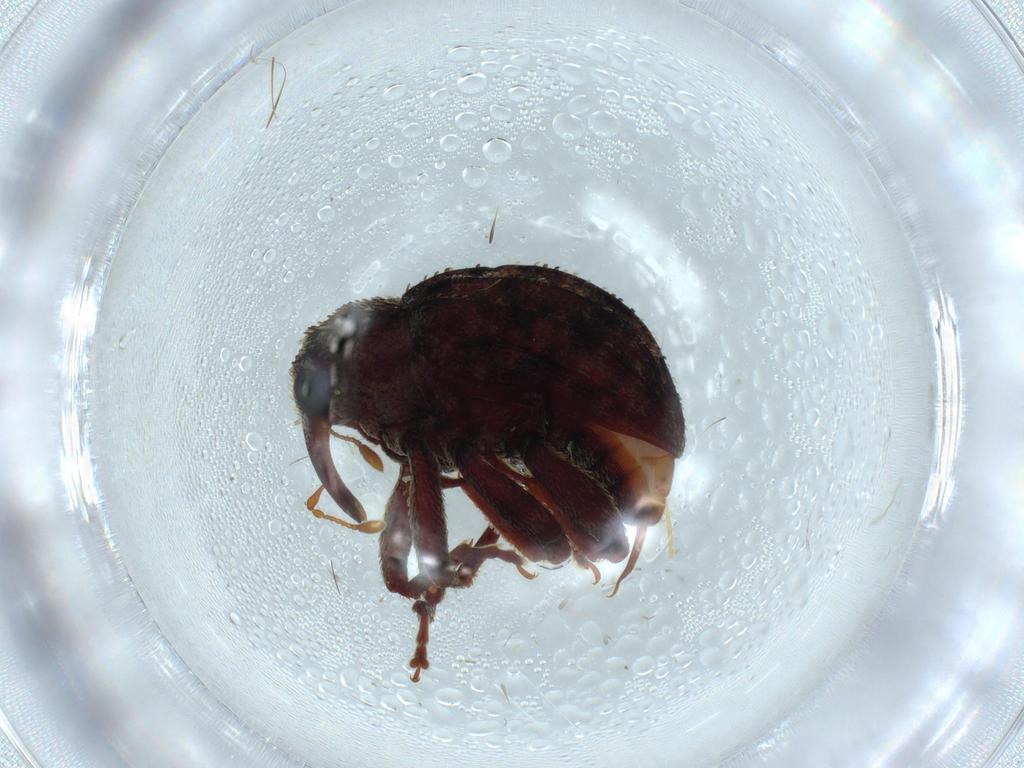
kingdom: Animalia
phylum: Arthropoda
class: Insecta
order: Coleoptera
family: Curculionidae
